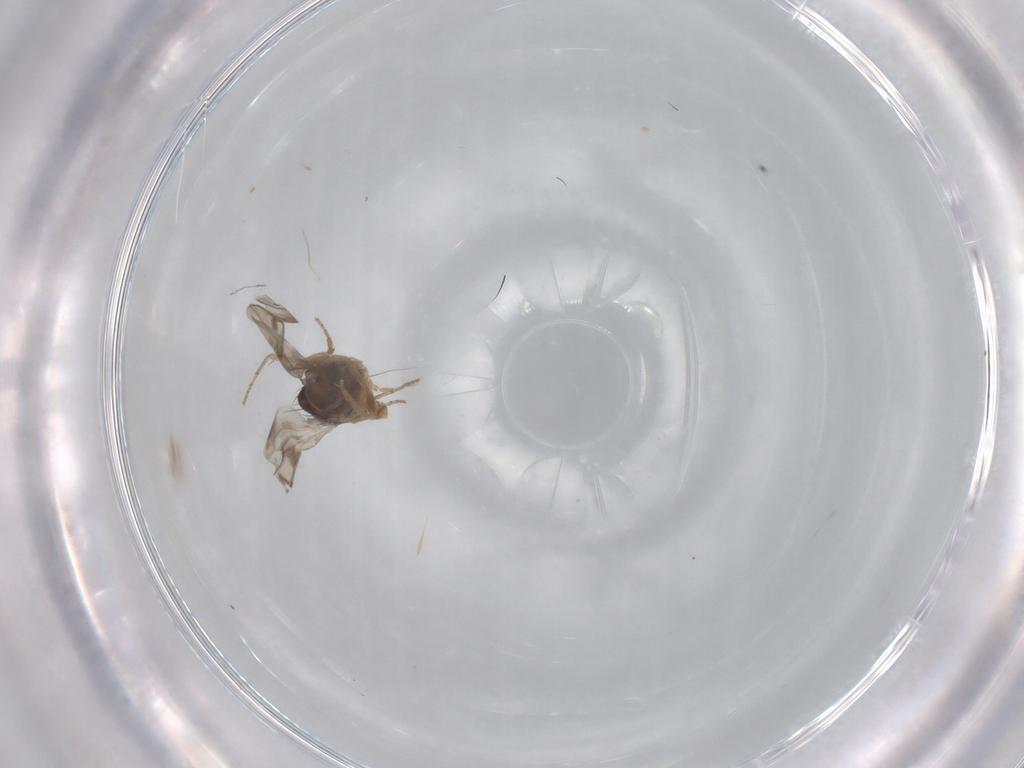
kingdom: Animalia
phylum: Arthropoda
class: Insecta
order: Diptera
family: Cecidomyiidae
